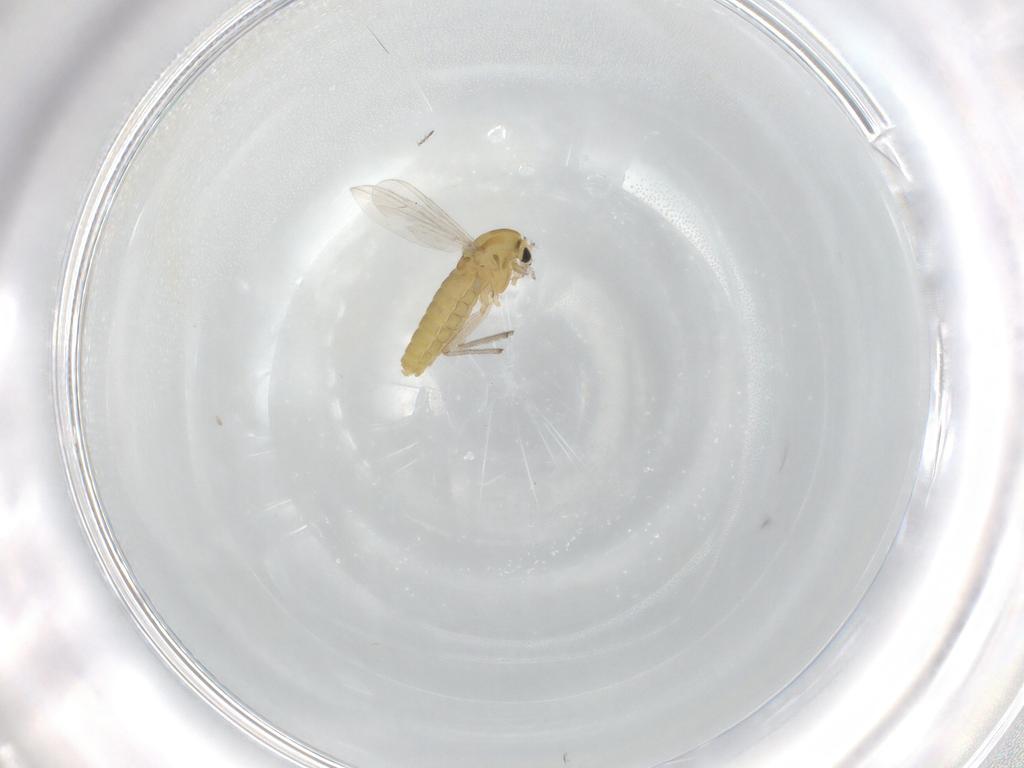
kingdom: Animalia
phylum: Arthropoda
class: Insecta
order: Diptera
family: Chironomidae
